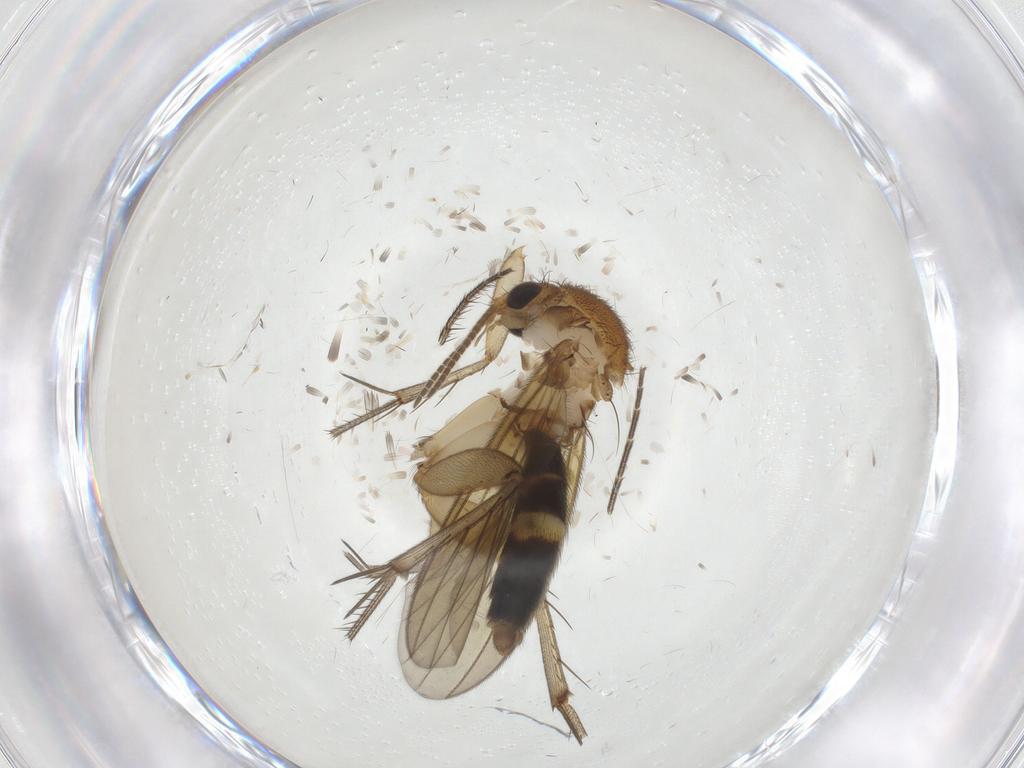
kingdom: Animalia
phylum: Arthropoda
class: Insecta
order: Diptera
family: Mycetophilidae
